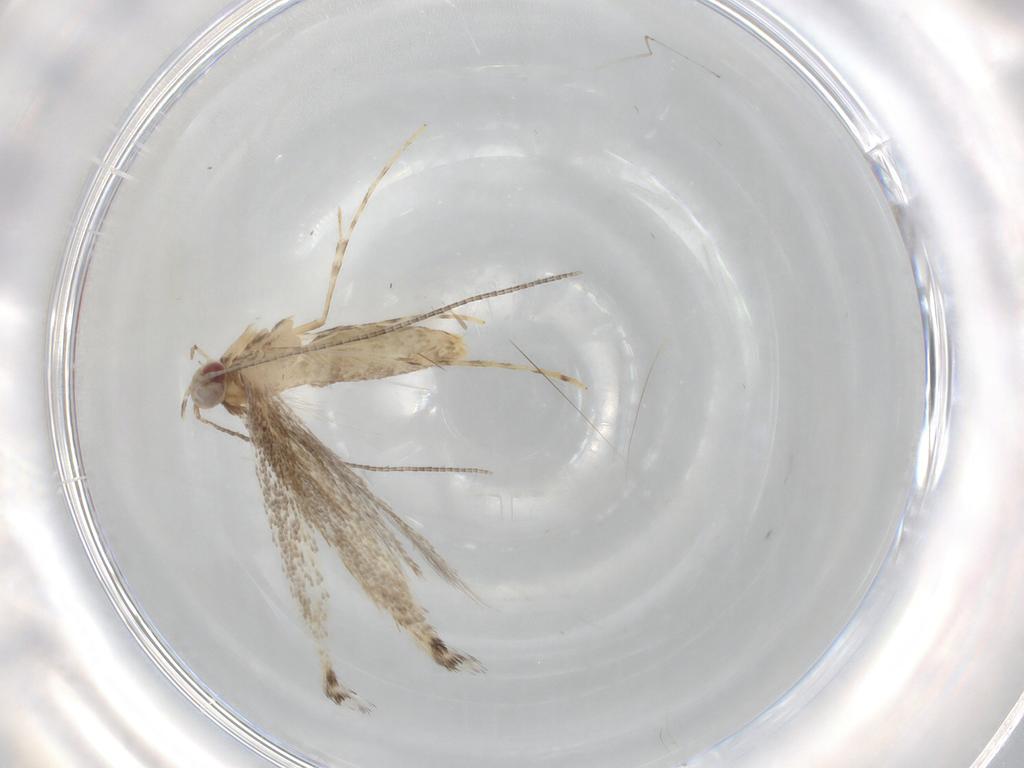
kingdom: Animalia
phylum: Arthropoda
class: Insecta
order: Lepidoptera
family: Gracillariidae
